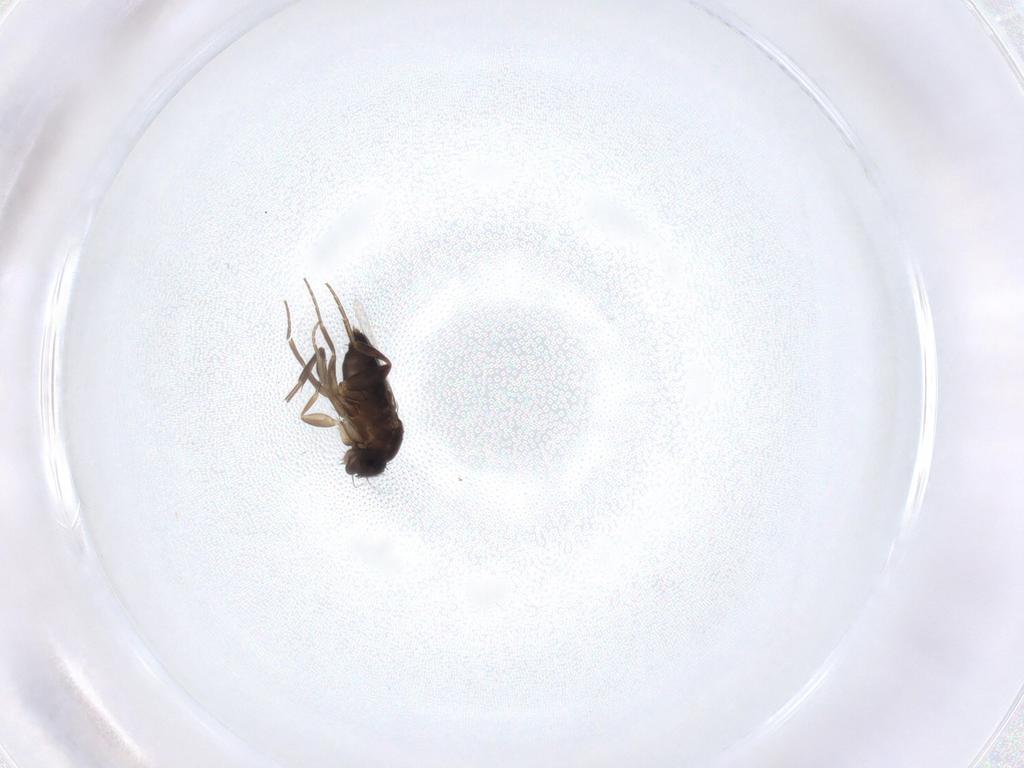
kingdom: Animalia
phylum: Arthropoda
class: Insecta
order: Diptera
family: Phoridae
